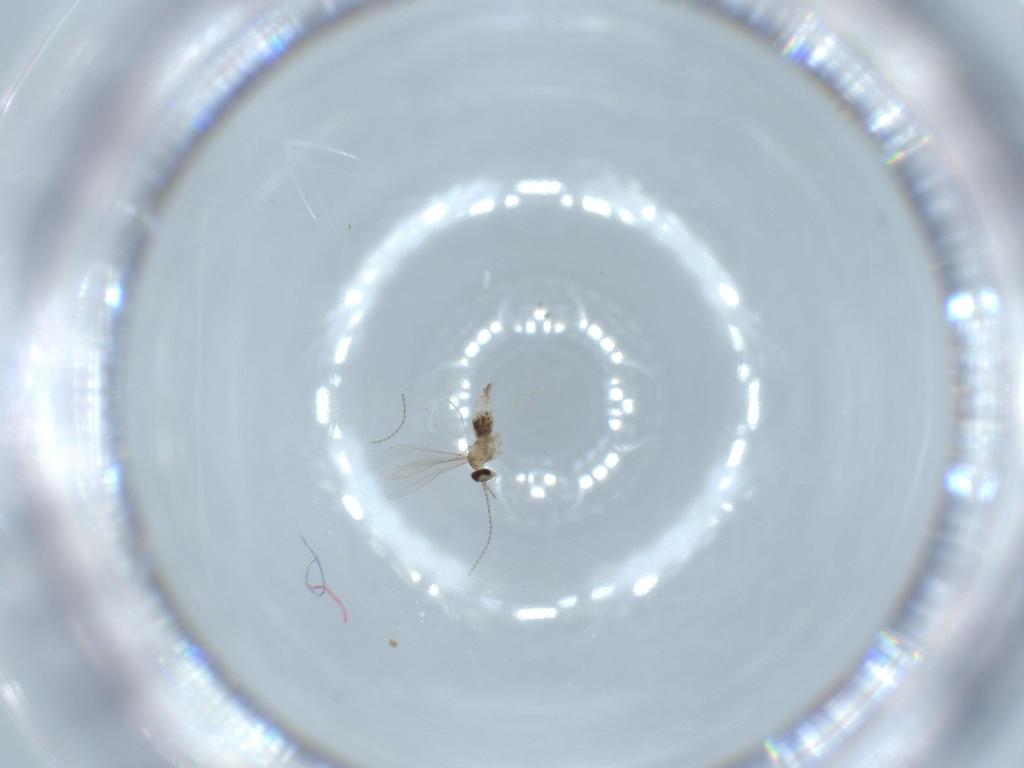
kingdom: Animalia
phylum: Arthropoda
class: Insecta
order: Diptera
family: Cecidomyiidae
